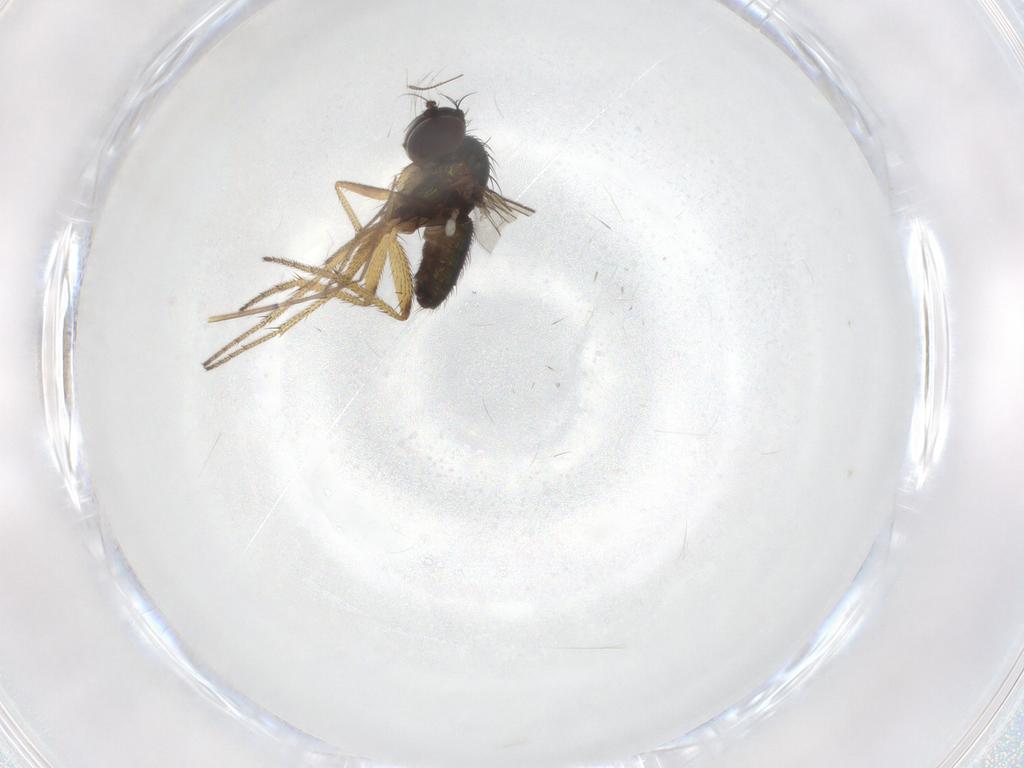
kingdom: Animalia
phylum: Arthropoda
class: Insecta
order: Diptera
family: Chironomidae
